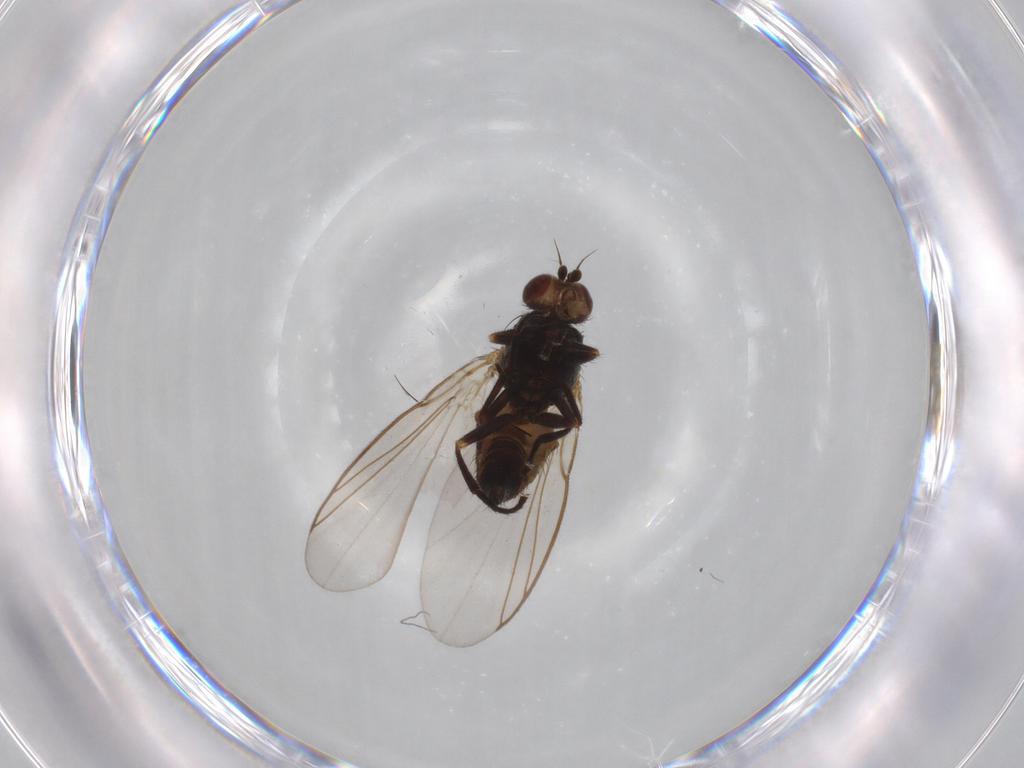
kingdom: Animalia
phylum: Arthropoda
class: Insecta
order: Diptera
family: Agromyzidae
